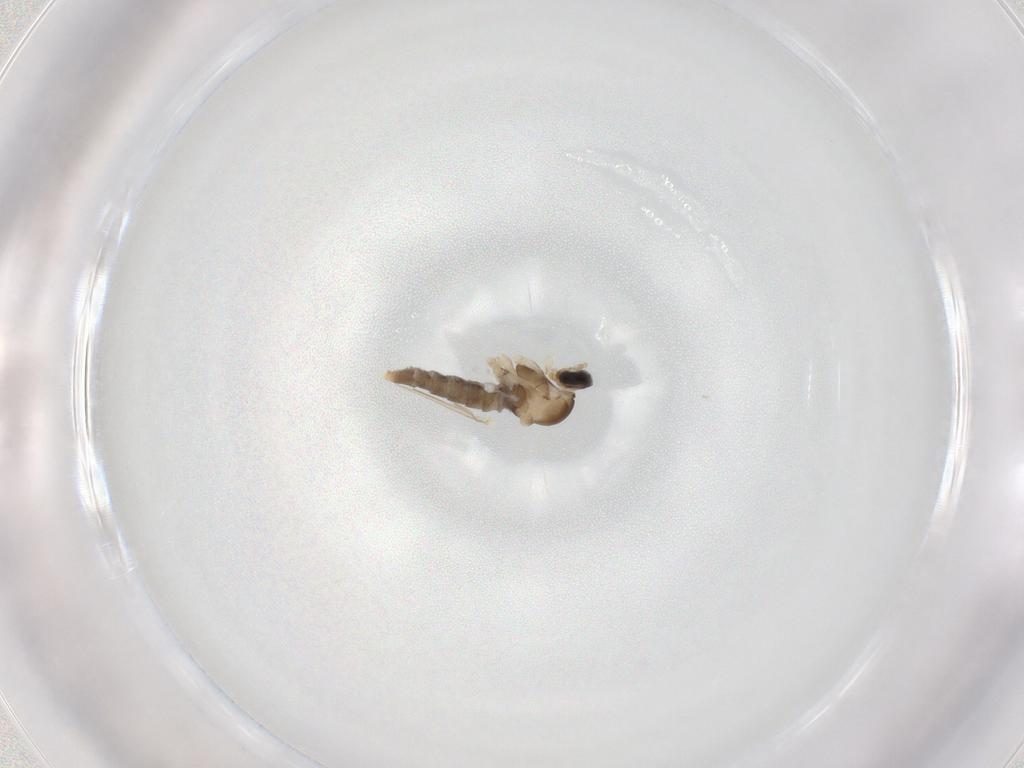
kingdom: Animalia
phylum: Arthropoda
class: Insecta
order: Diptera
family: Cecidomyiidae
